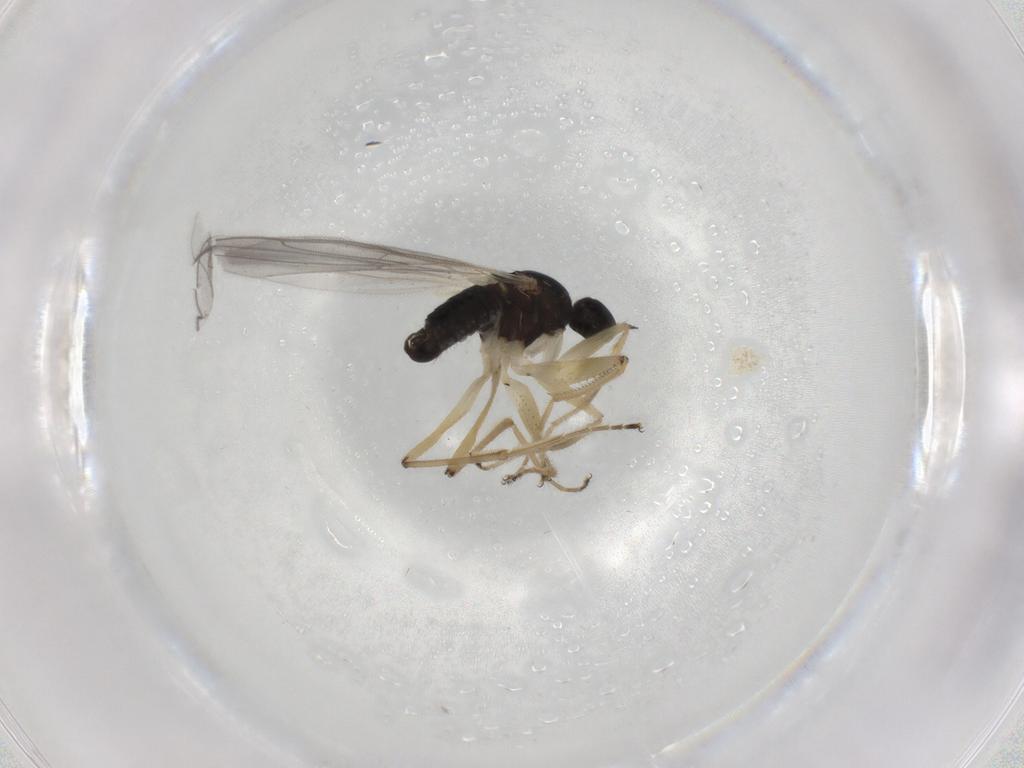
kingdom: Animalia
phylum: Arthropoda
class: Insecta
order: Diptera
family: Hybotidae
